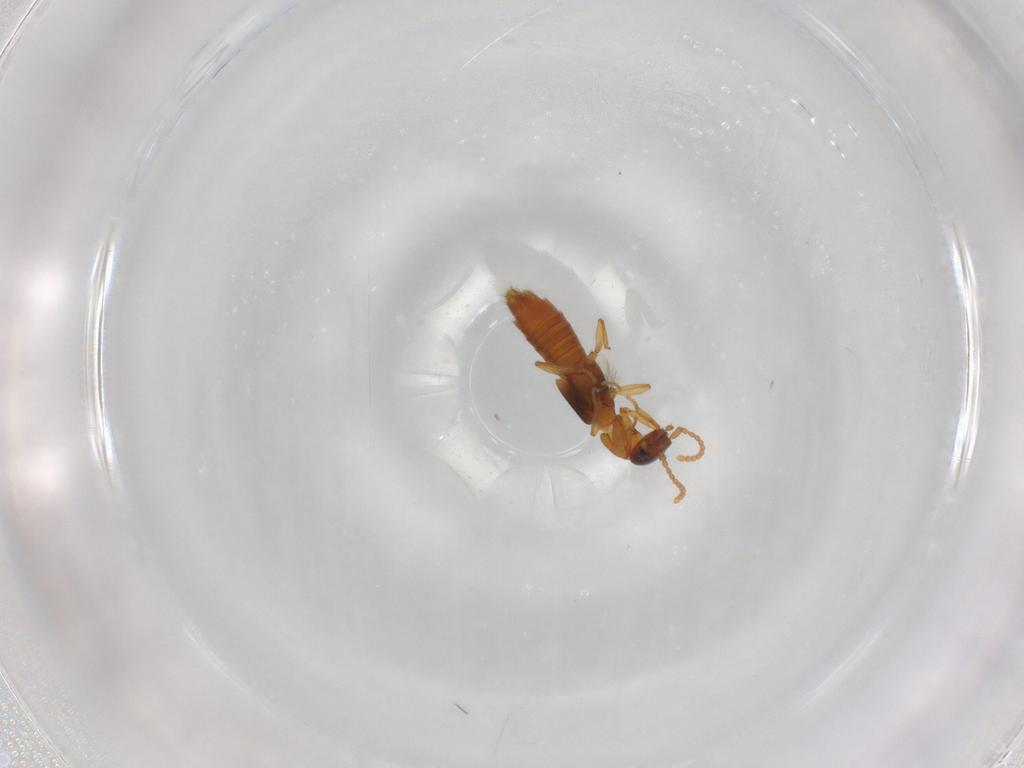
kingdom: Animalia
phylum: Arthropoda
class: Insecta
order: Coleoptera
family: Staphylinidae
